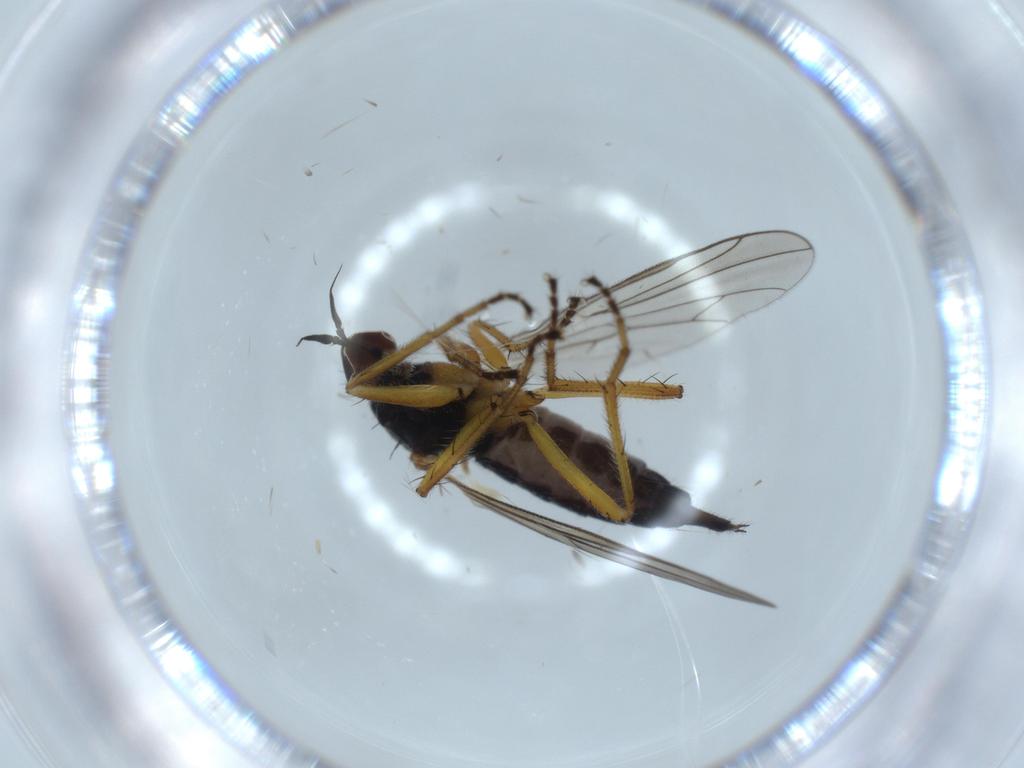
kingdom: Animalia
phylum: Arthropoda
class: Insecta
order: Diptera
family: Hybotidae
